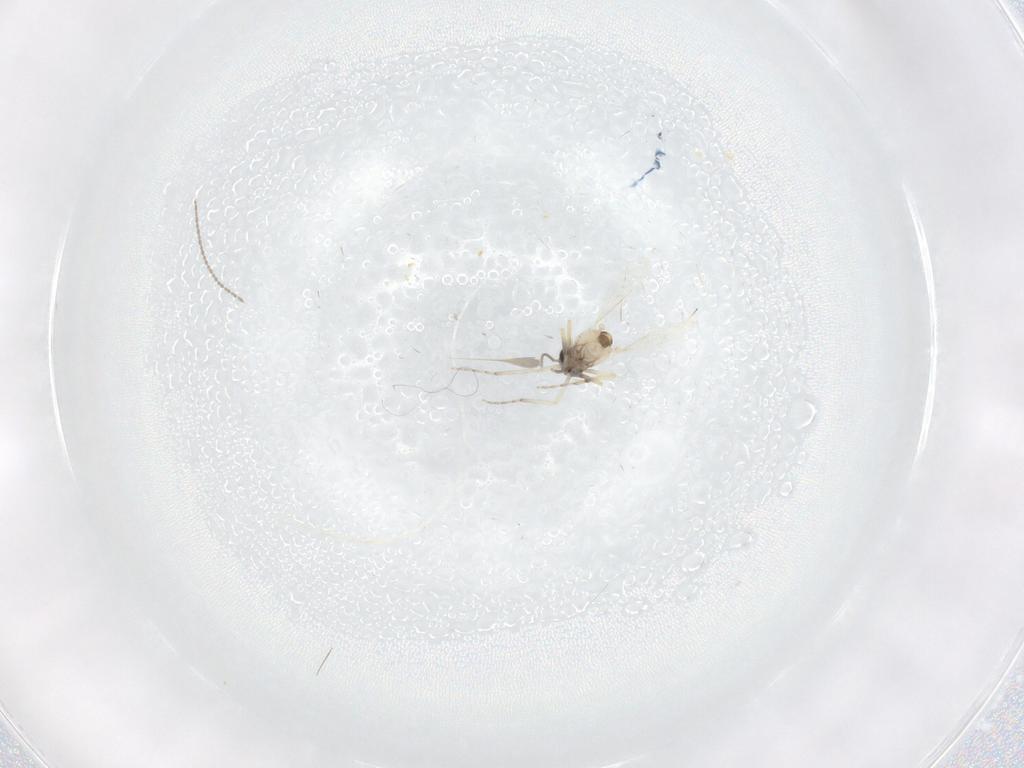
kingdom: Animalia
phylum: Arthropoda
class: Insecta
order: Diptera
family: Cecidomyiidae
